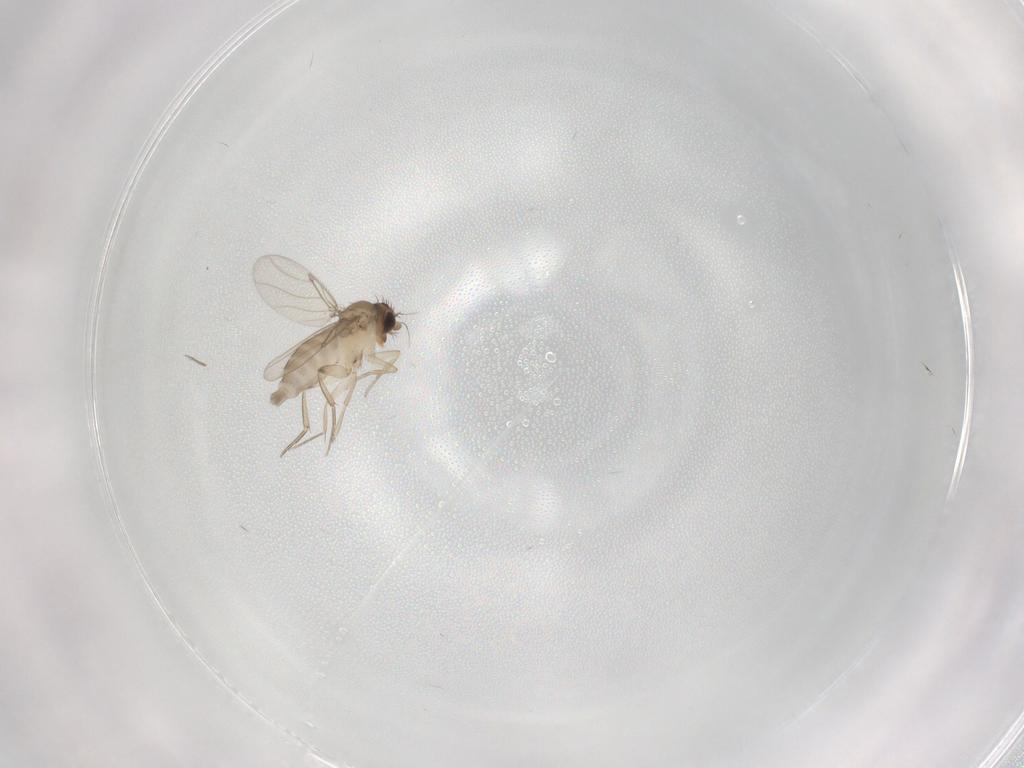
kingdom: Animalia
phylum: Arthropoda
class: Insecta
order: Diptera
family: Phoridae
